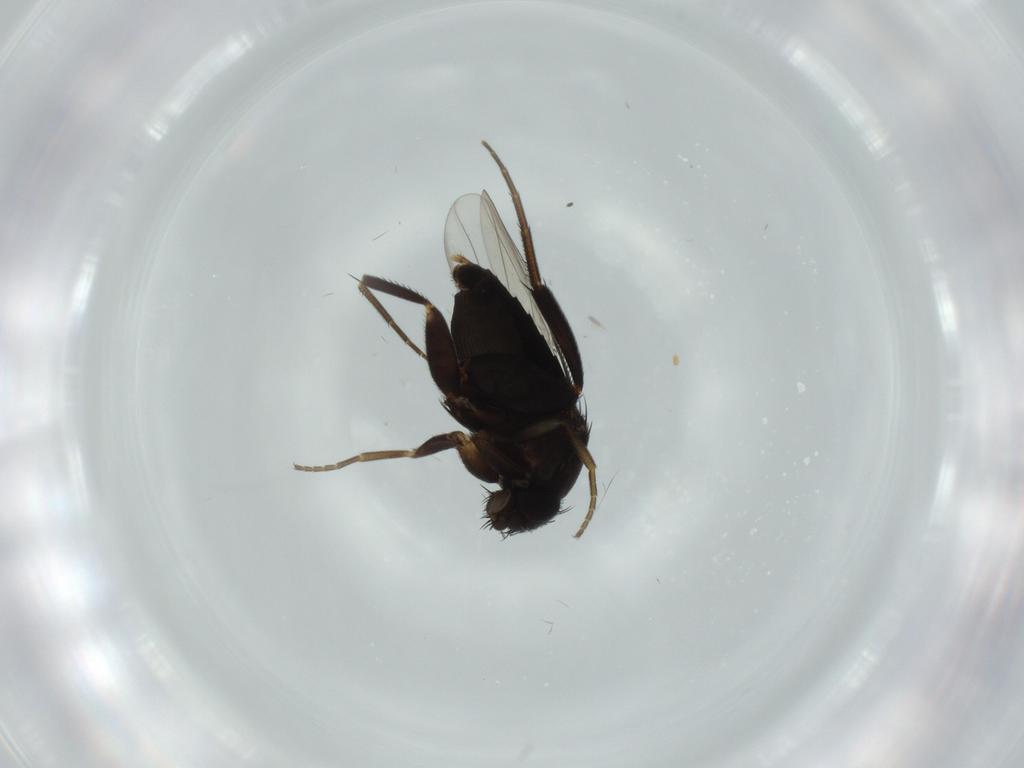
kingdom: Animalia
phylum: Arthropoda
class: Insecta
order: Diptera
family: Phoridae
